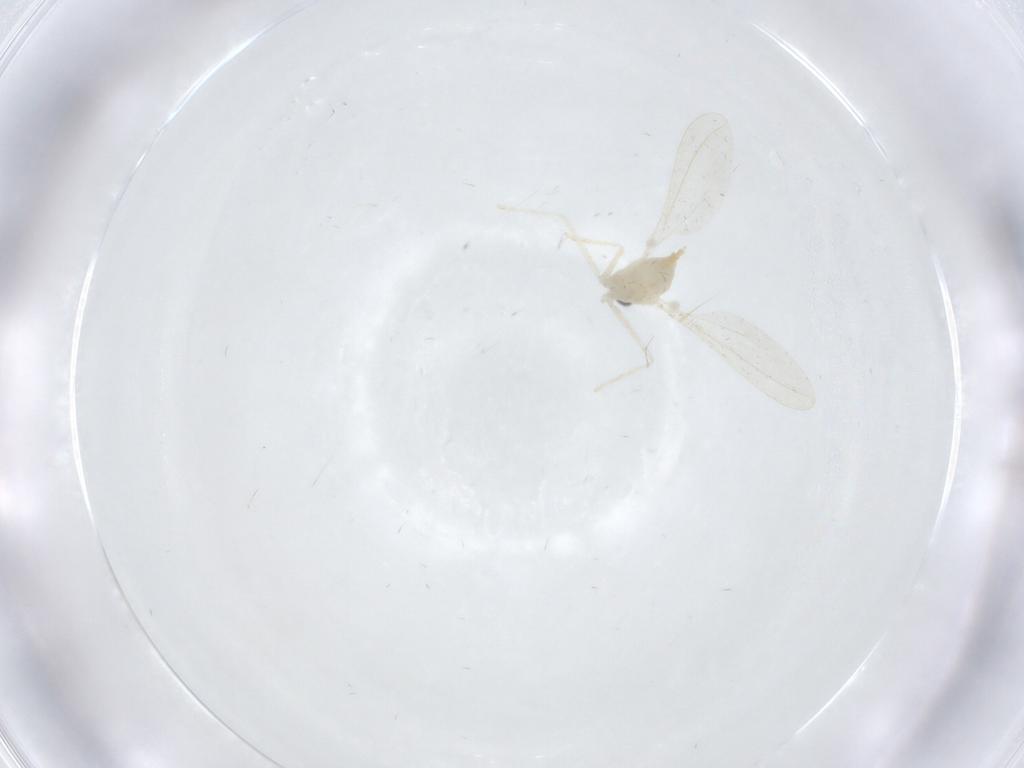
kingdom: Animalia
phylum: Arthropoda
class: Insecta
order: Diptera
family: Cecidomyiidae
